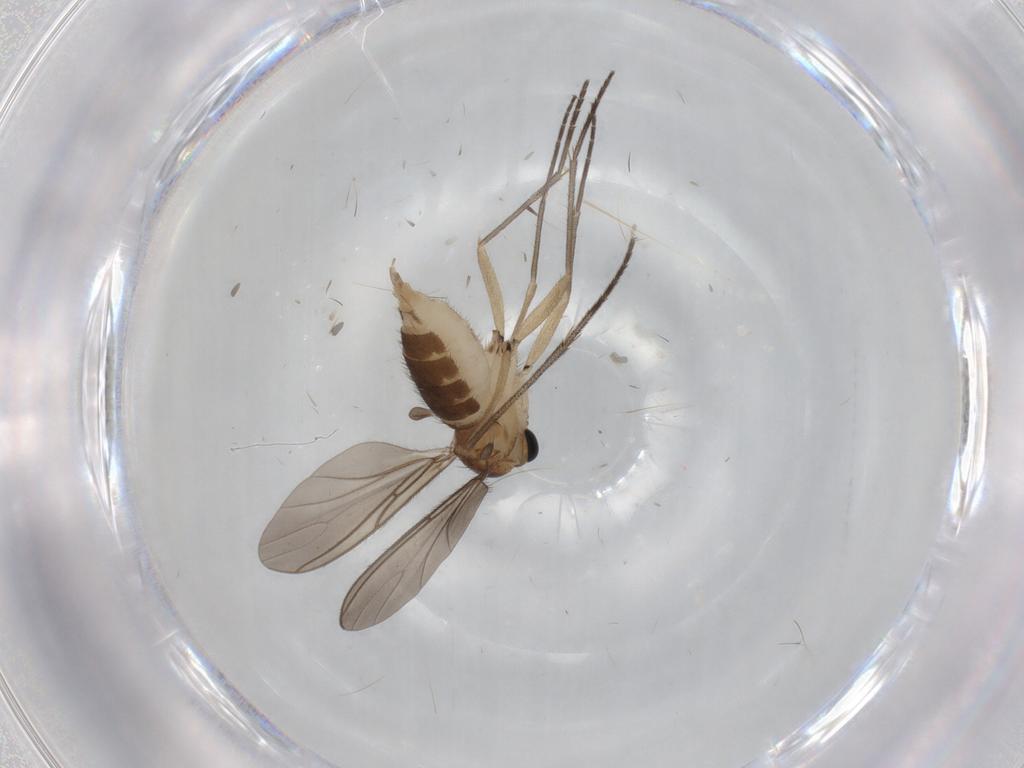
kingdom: Animalia
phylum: Arthropoda
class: Insecta
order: Diptera
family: Sciaridae
